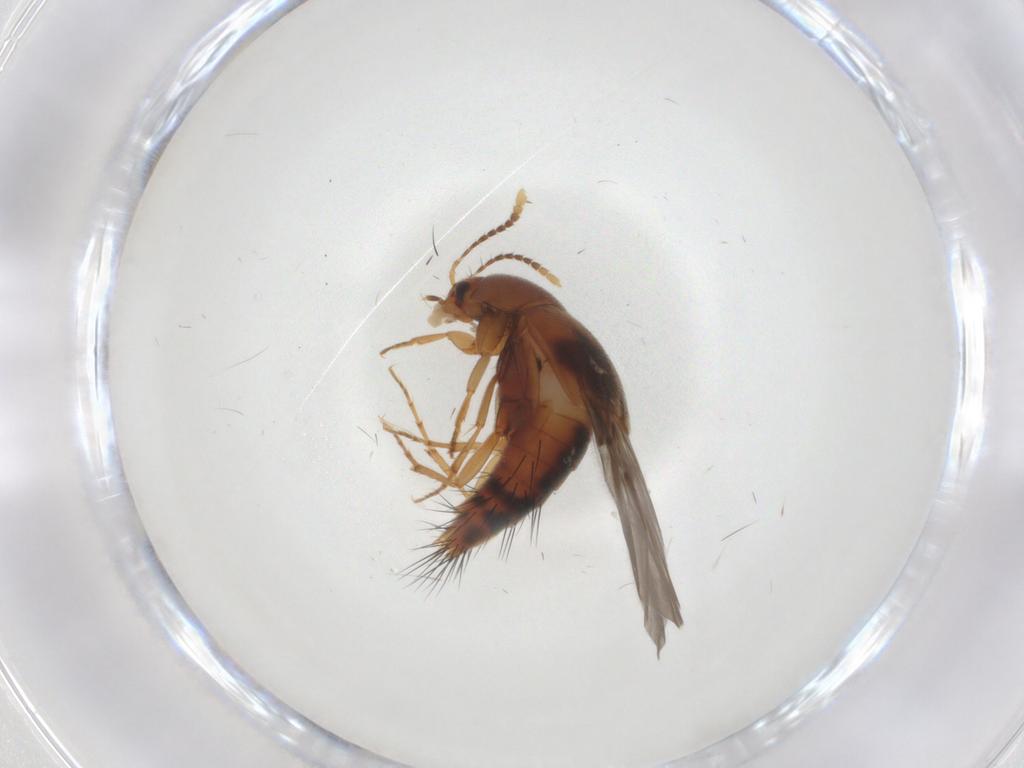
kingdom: Animalia
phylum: Arthropoda
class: Insecta
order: Coleoptera
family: Staphylinidae
